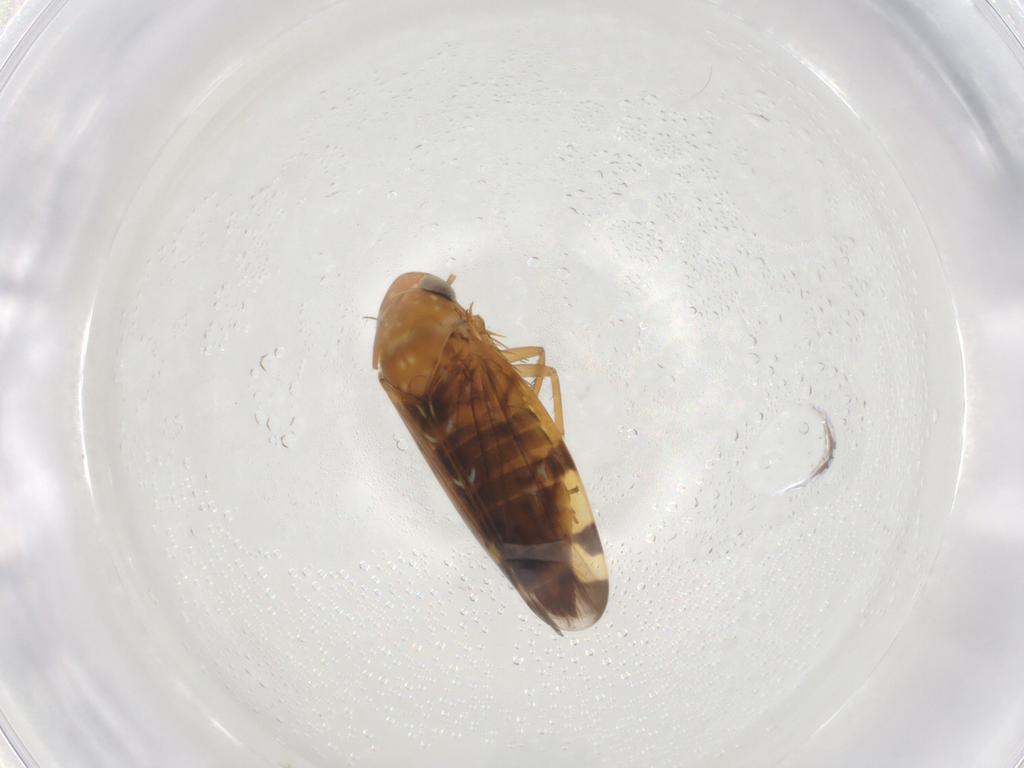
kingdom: Animalia
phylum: Arthropoda
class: Insecta
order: Hemiptera
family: Cicadellidae
